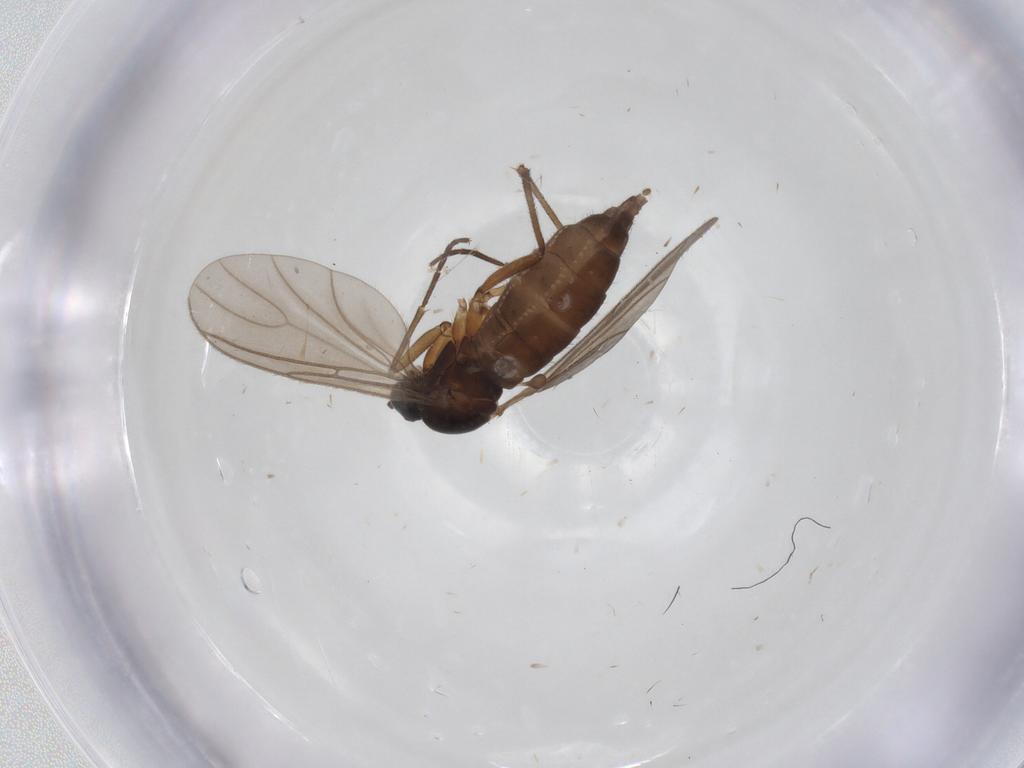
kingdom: Animalia
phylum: Arthropoda
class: Insecta
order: Diptera
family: Sciaridae
